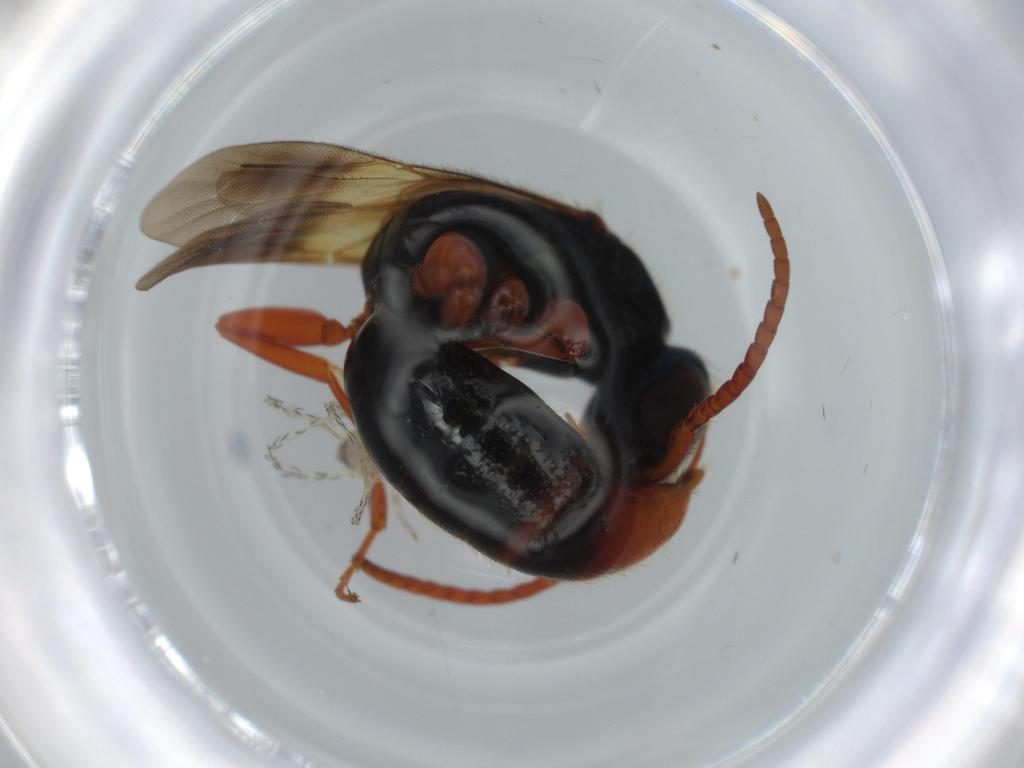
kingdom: Animalia
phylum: Arthropoda
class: Insecta
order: Hymenoptera
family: Bethylidae
